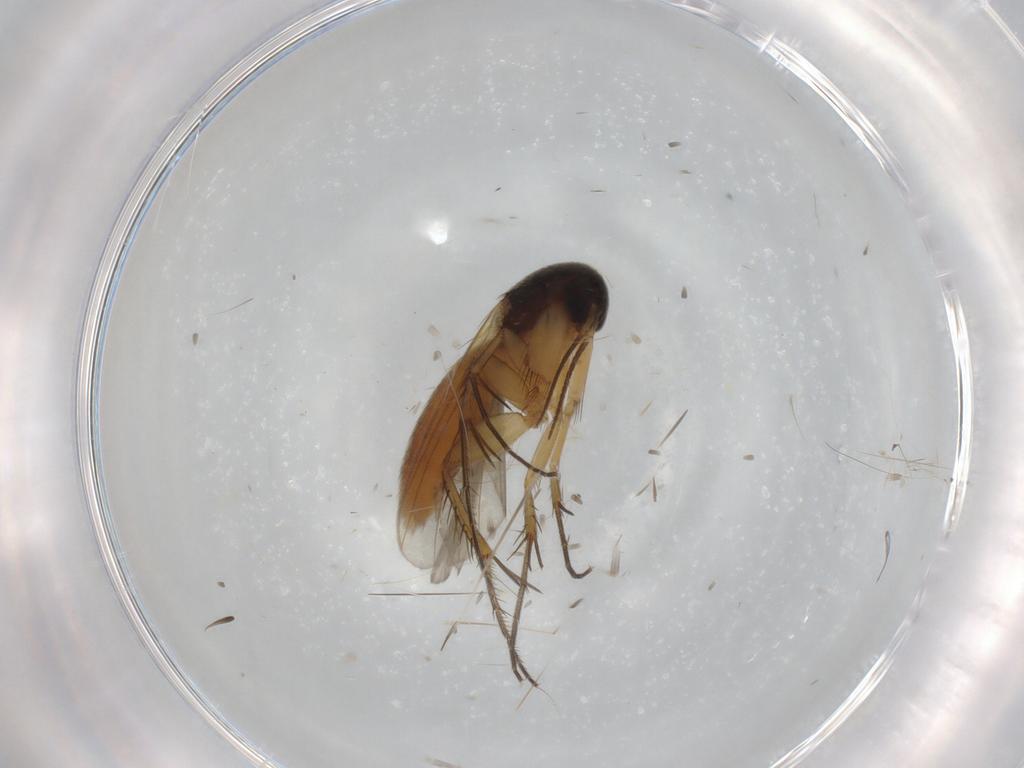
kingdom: Animalia
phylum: Arthropoda
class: Insecta
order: Diptera
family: Mycetophilidae
